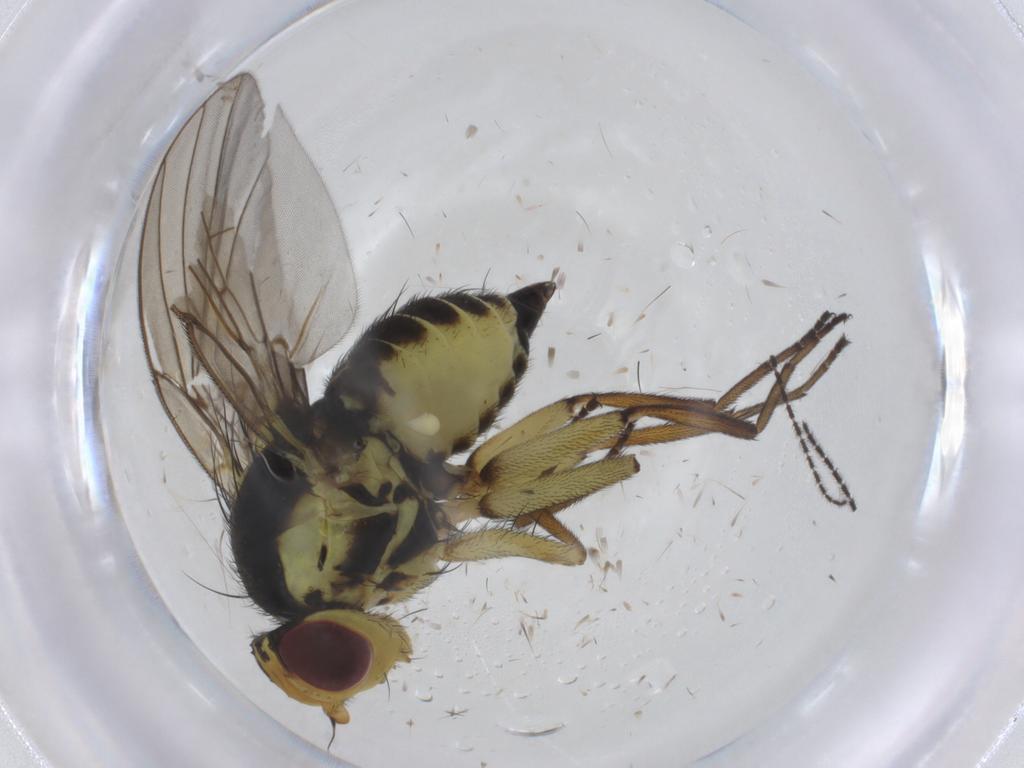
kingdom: Animalia
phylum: Arthropoda
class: Insecta
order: Diptera
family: Agromyzidae
